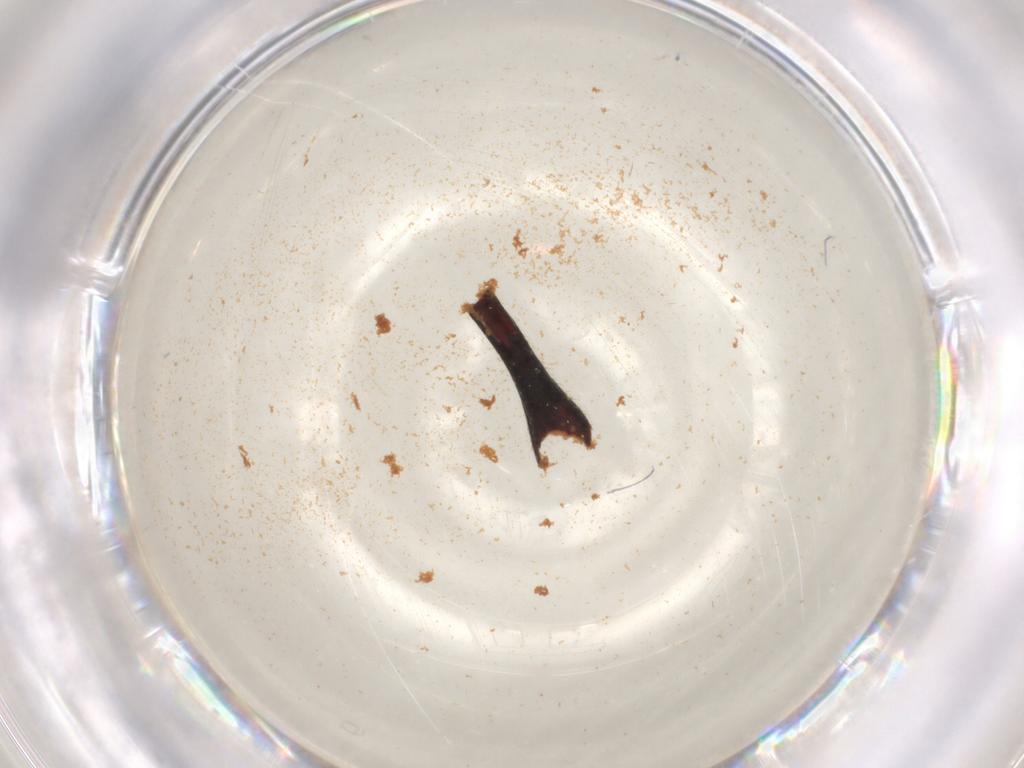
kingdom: Animalia
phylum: Arthropoda
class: Insecta
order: Coleoptera
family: Curculionidae
